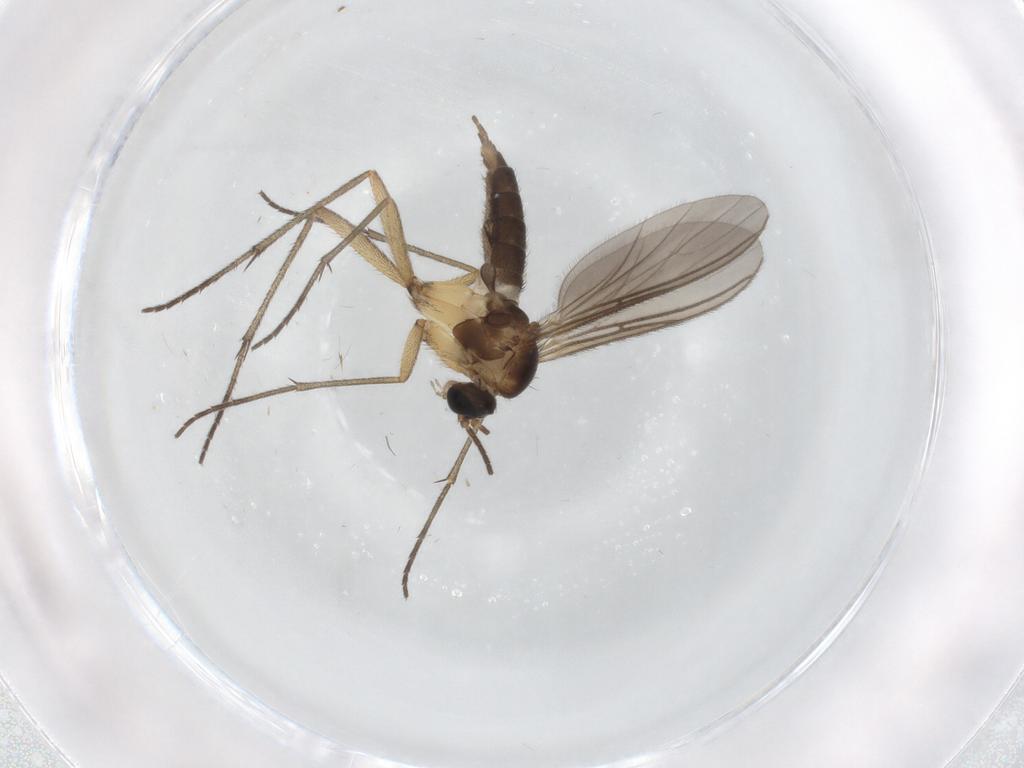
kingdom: Animalia
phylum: Arthropoda
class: Insecta
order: Diptera
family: Sciaridae
